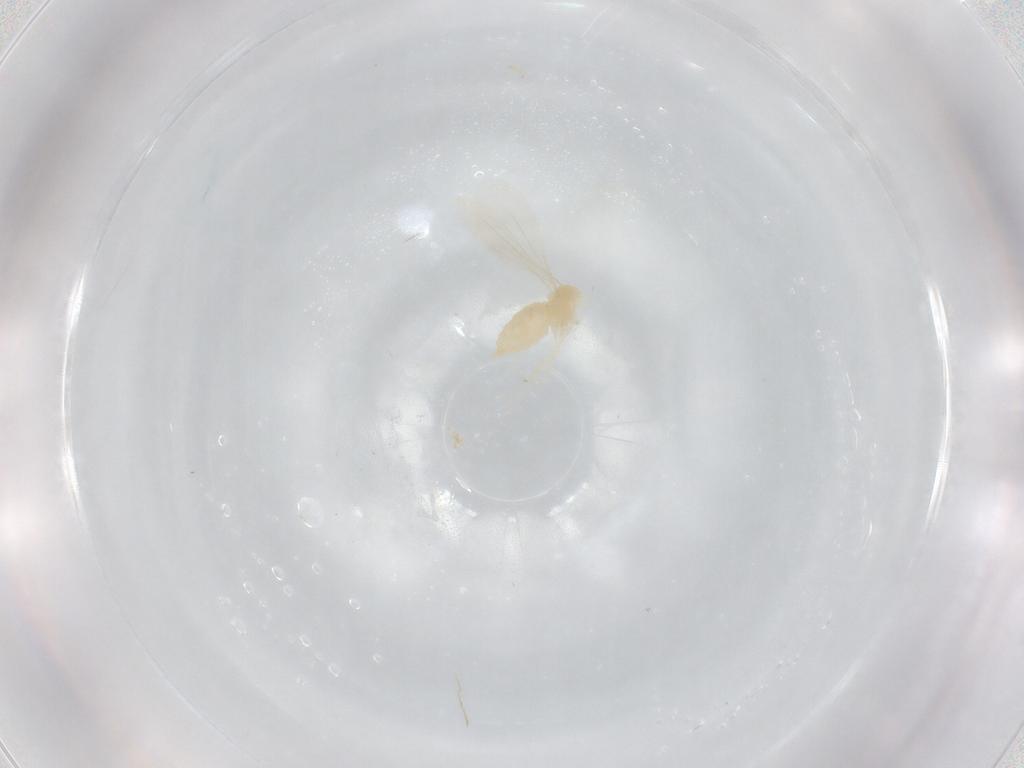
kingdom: Animalia
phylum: Arthropoda
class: Insecta
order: Diptera
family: Cecidomyiidae
